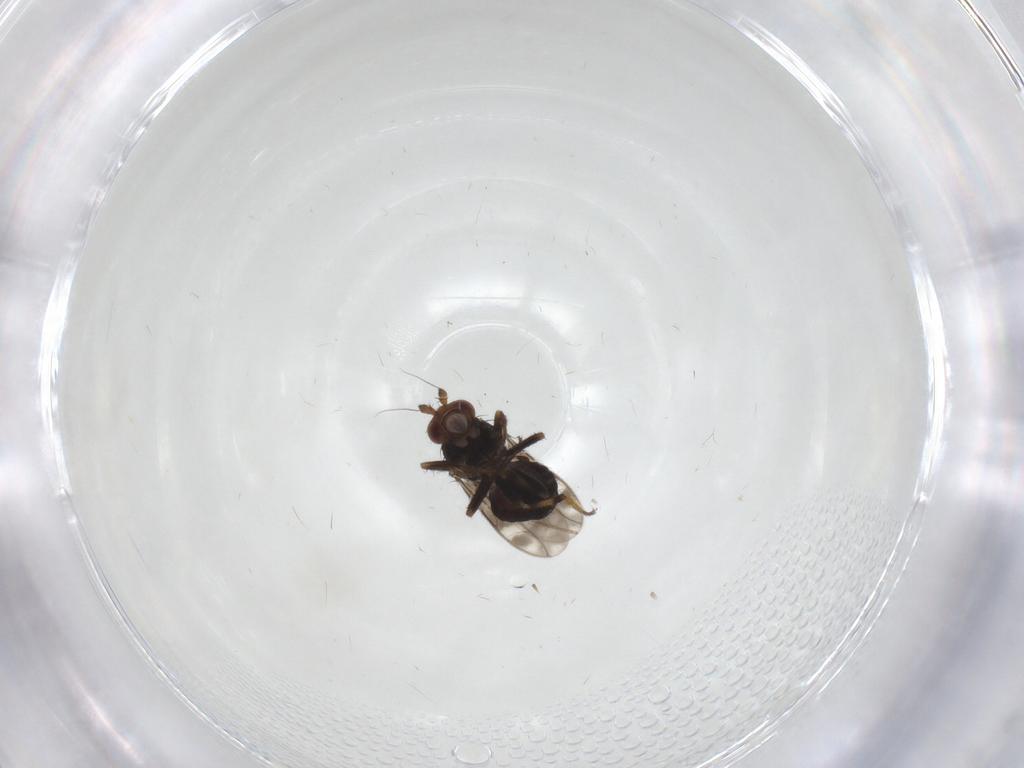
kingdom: Animalia
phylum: Arthropoda
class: Insecta
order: Diptera
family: Sphaeroceridae
